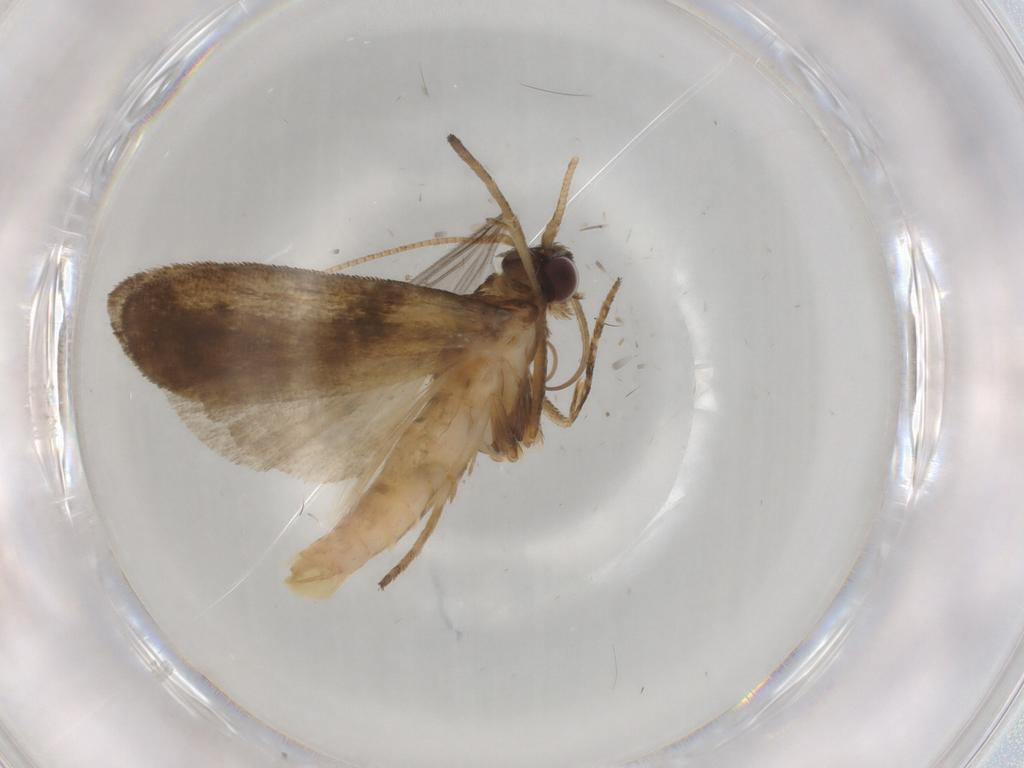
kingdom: Animalia
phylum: Arthropoda
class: Insecta
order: Lepidoptera
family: Noctuidae
